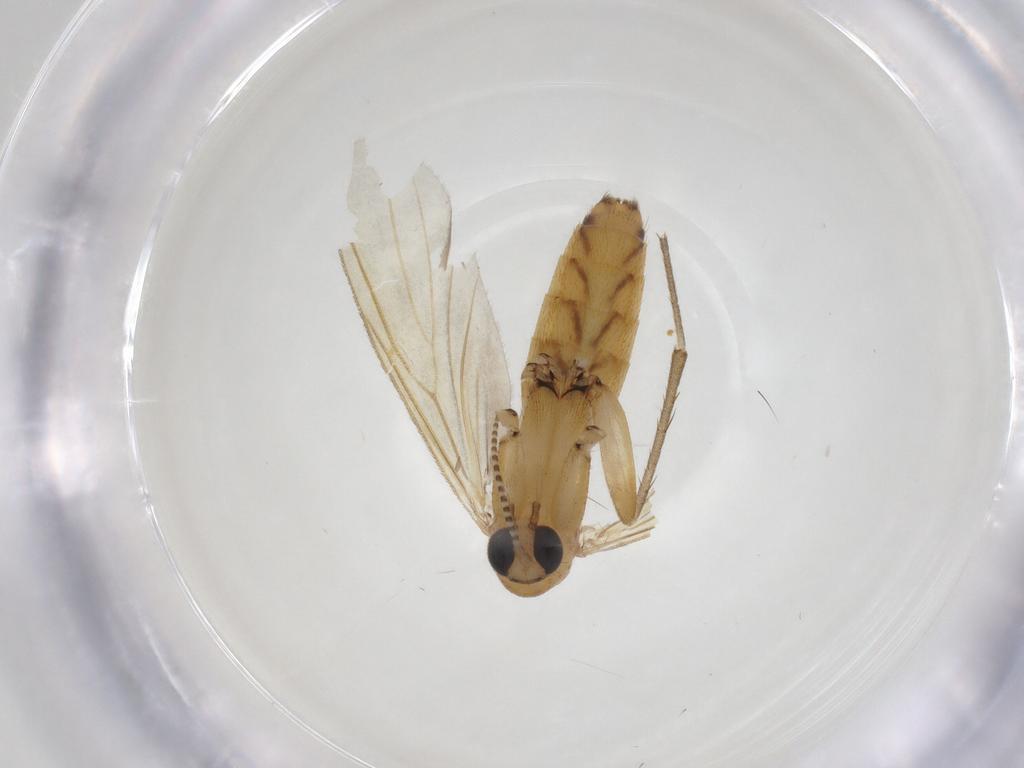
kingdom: Animalia
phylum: Arthropoda
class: Insecta
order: Diptera
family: Mycetophilidae
